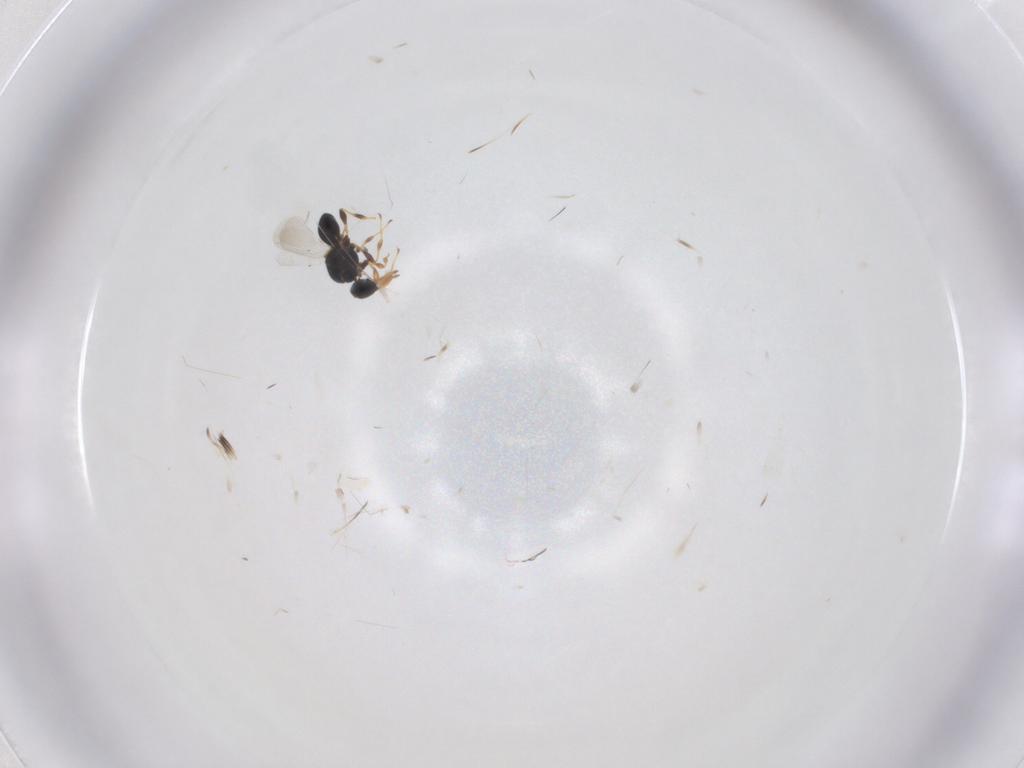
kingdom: Animalia
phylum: Arthropoda
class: Insecta
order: Hymenoptera
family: Platygastridae
